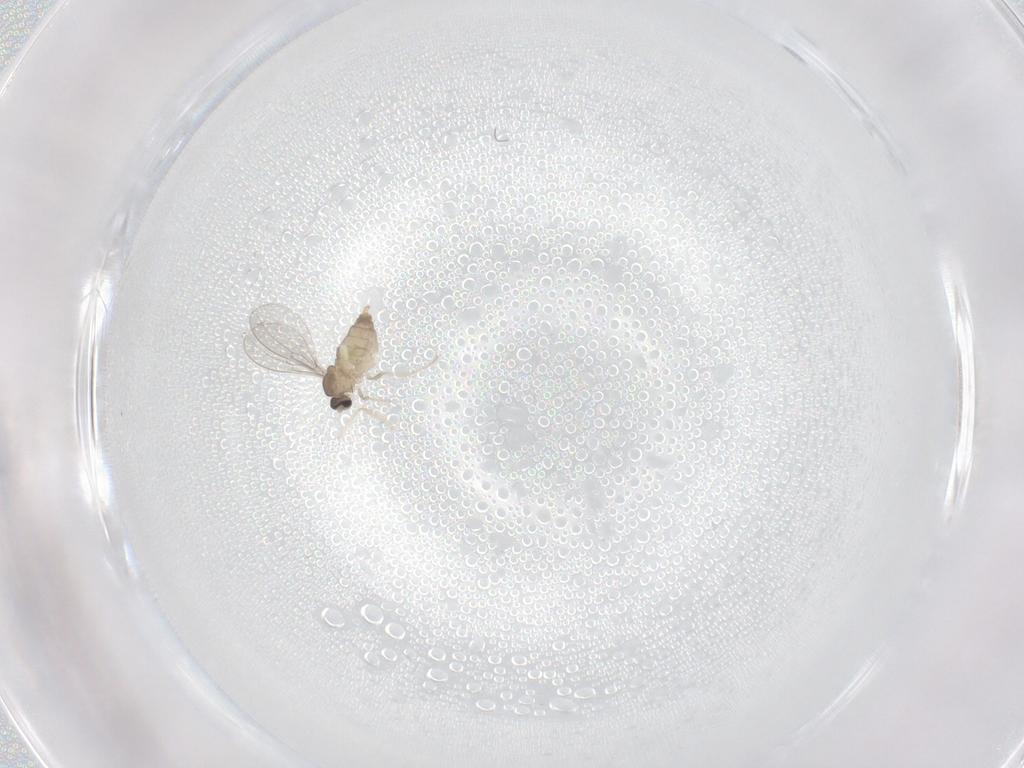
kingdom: Animalia
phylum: Arthropoda
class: Insecta
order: Diptera
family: Cecidomyiidae
